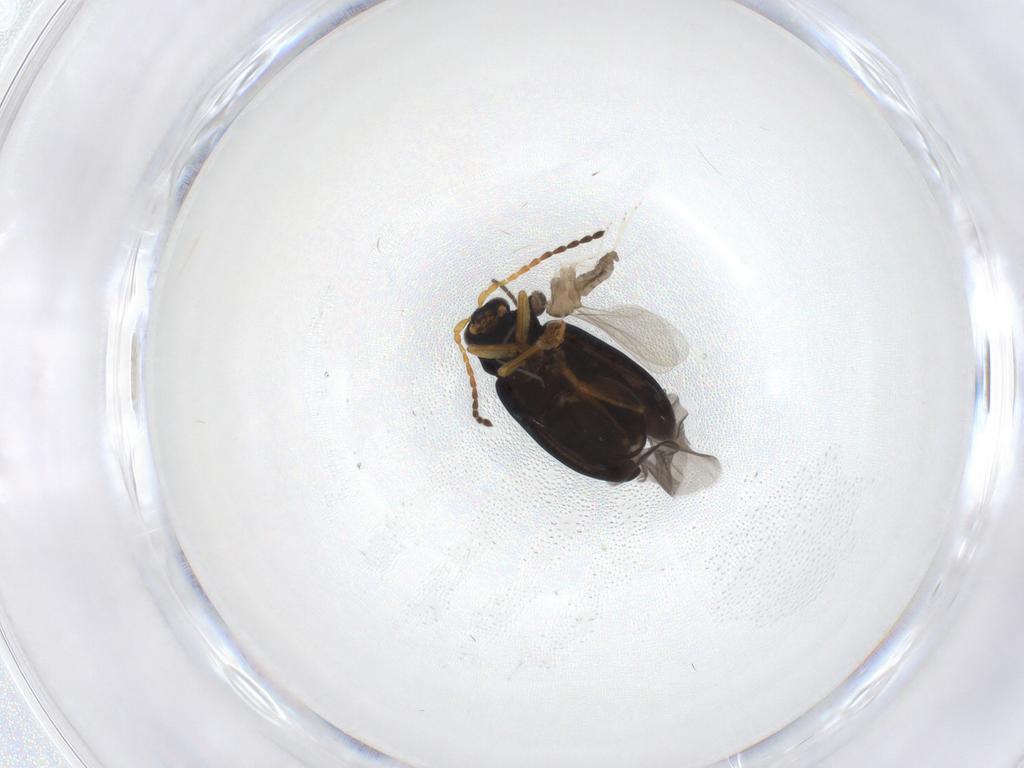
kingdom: Animalia
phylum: Arthropoda
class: Insecta
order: Coleoptera
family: Chrysomelidae
